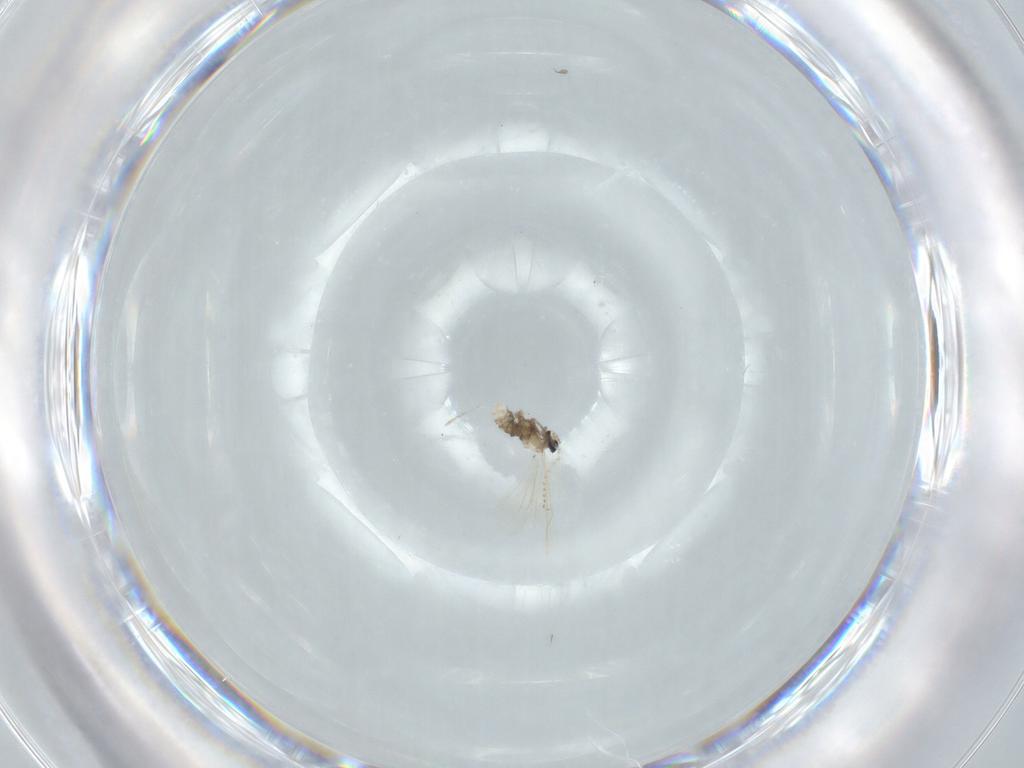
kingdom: Animalia
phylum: Arthropoda
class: Insecta
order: Diptera
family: Cecidomyiidae
